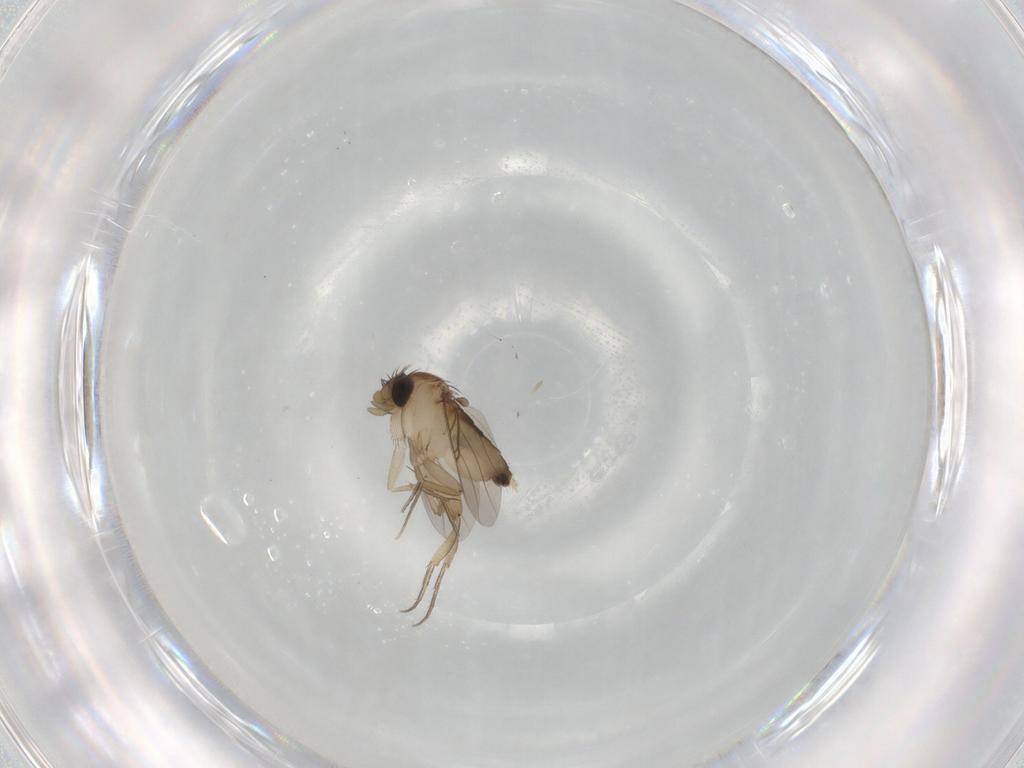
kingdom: Animalia
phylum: Arthropoda
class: Insecta
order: Diptera
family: Phoridae
